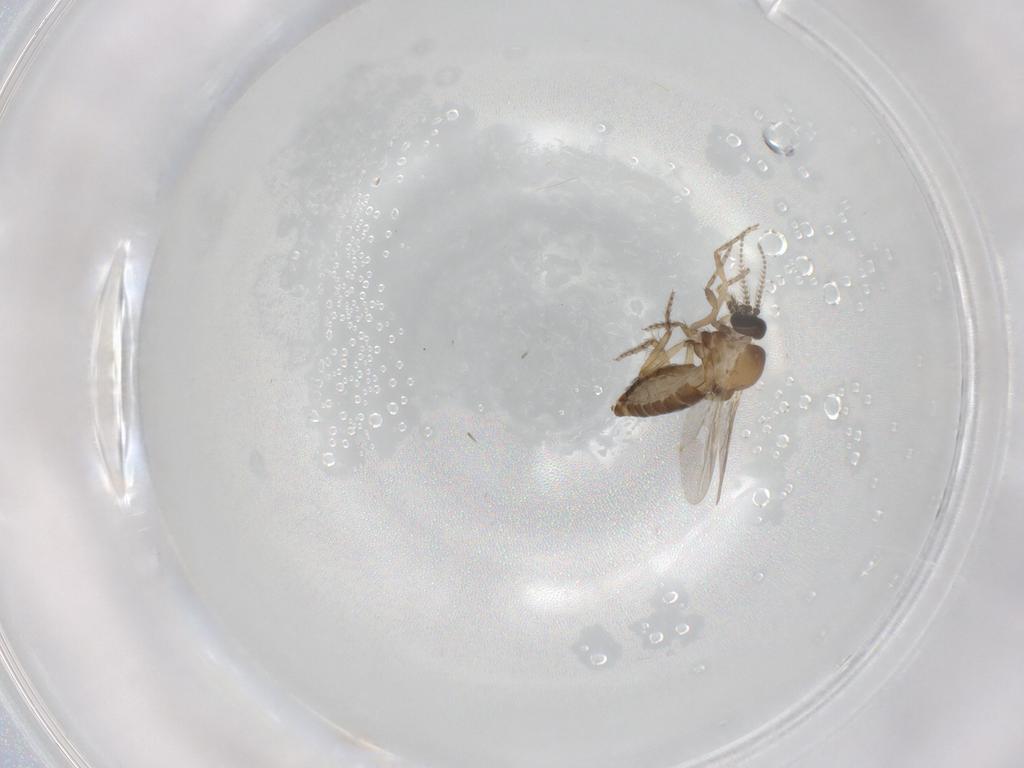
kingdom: Animalia
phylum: Arthropoda
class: Insecta
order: Diptera
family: Ceratopogonidae
